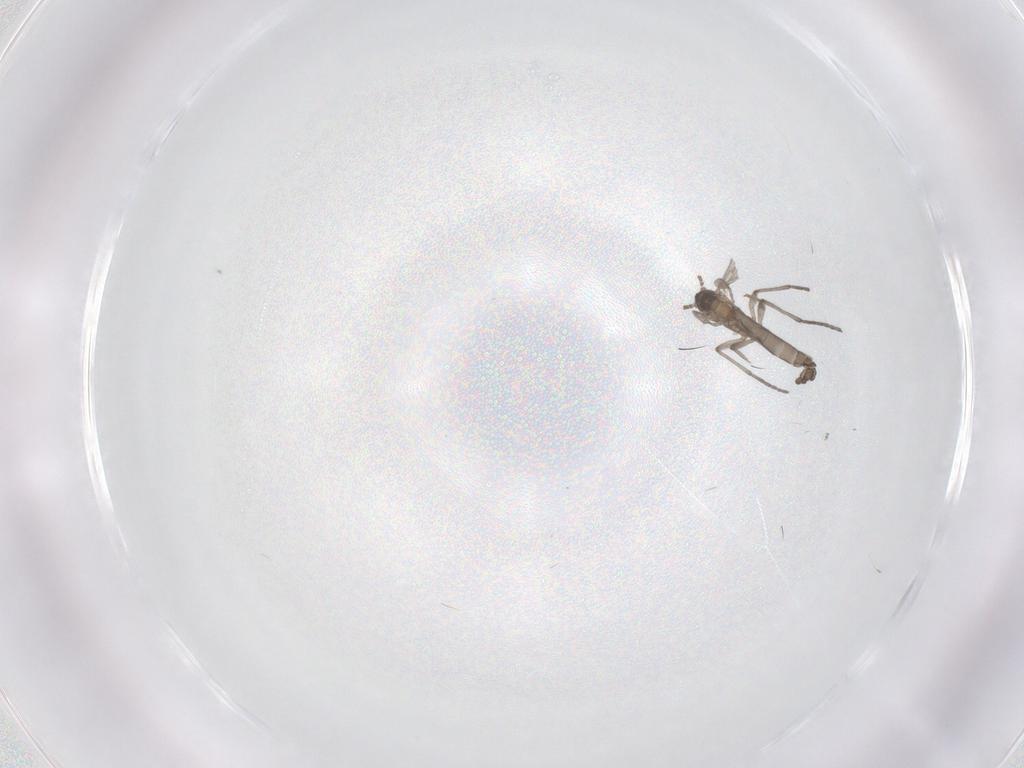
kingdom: Animalia
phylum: Arthropoda
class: Insecta
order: Diptera
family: Sciaridae
